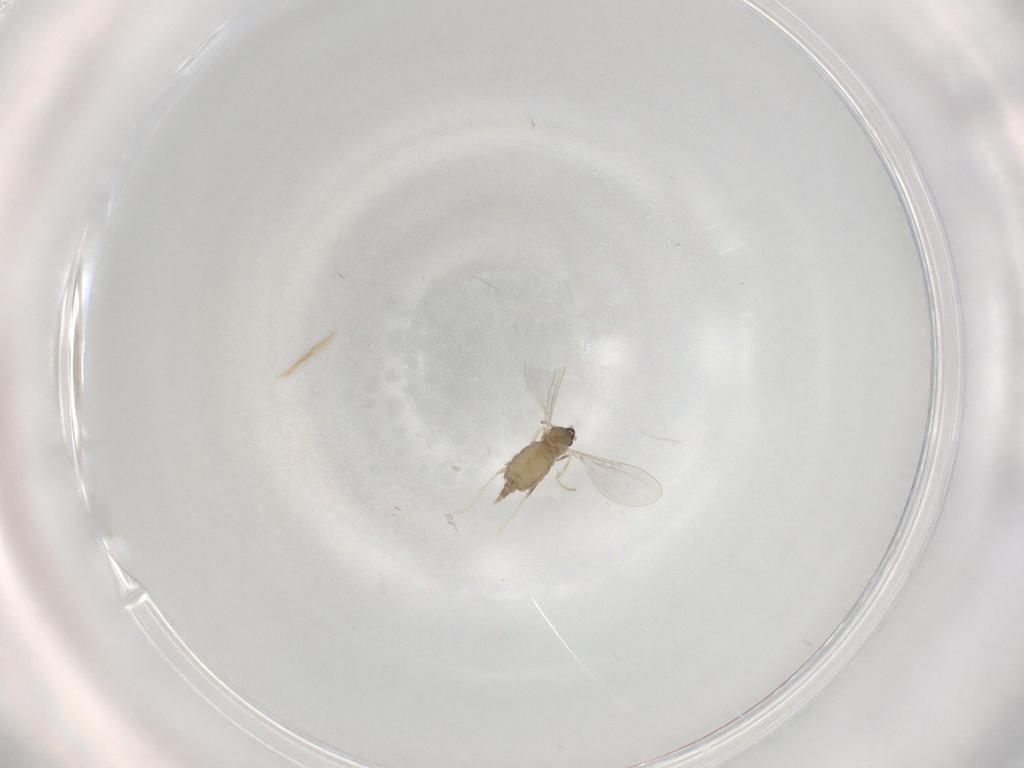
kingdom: Animalia
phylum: Arthropoda
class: Insecta
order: Diptera
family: Cecidomyiidae
